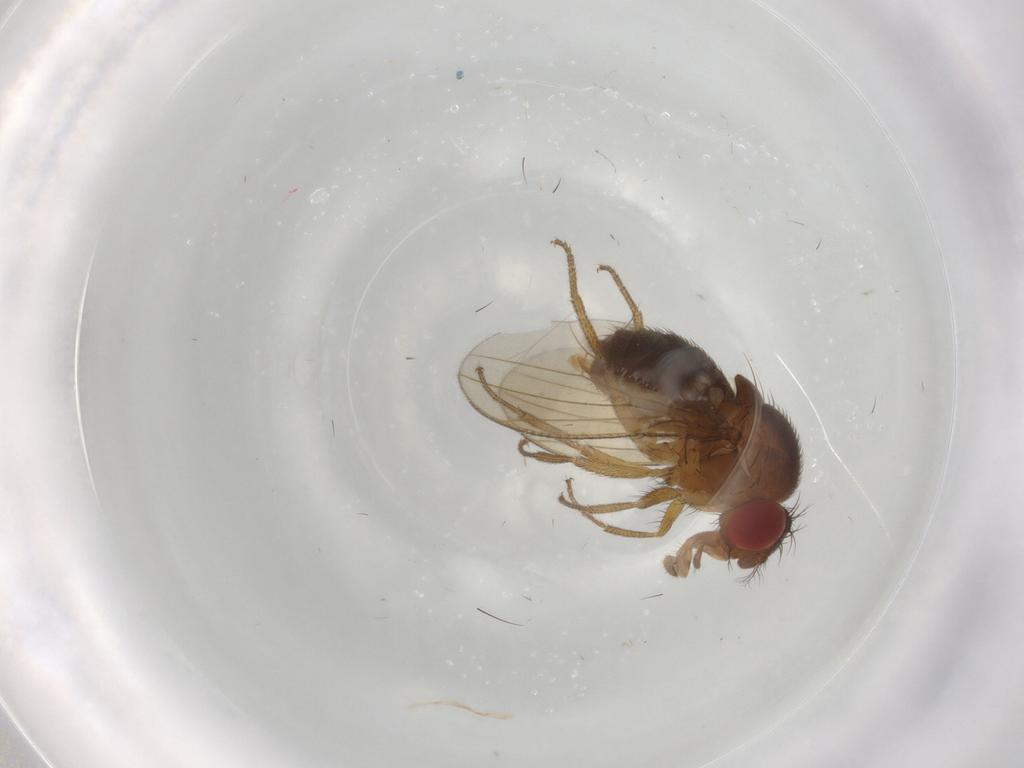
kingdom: Animalia
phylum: Arthropoda
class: Insecta
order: Diptera
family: Drosophilidae
